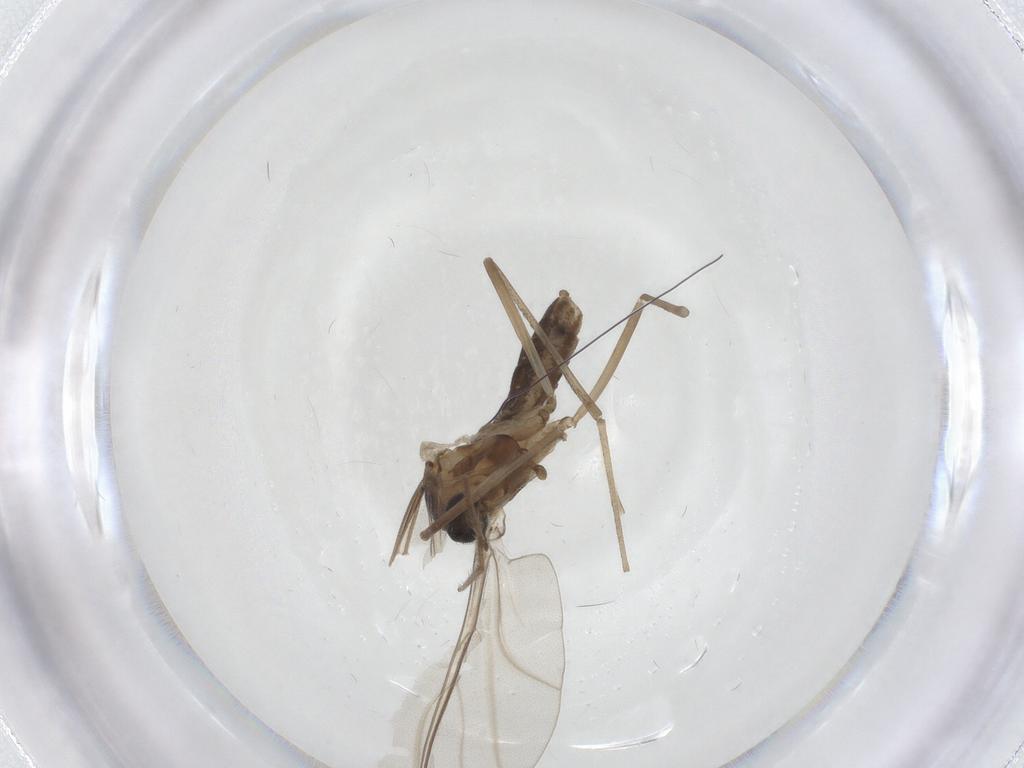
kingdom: Animalia
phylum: Arthropoda
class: Insecta
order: Diptera
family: Chironomidae
